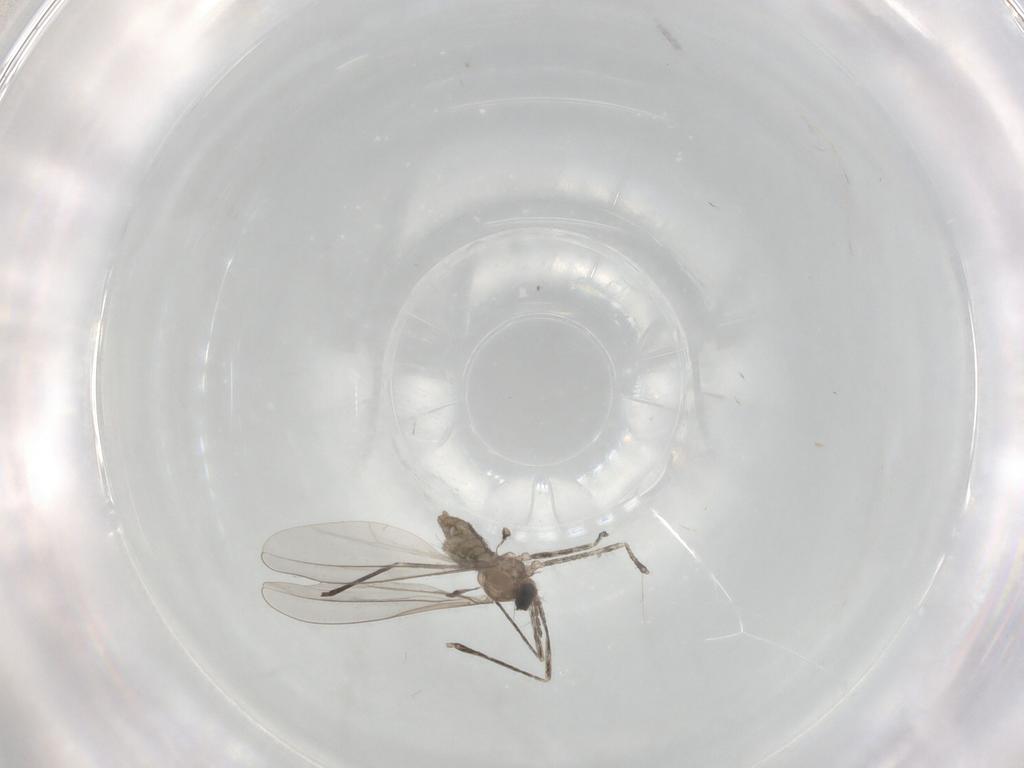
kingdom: Animalia
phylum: Arthropoda
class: Insecta
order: Diptera
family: Cecidomyiidae
